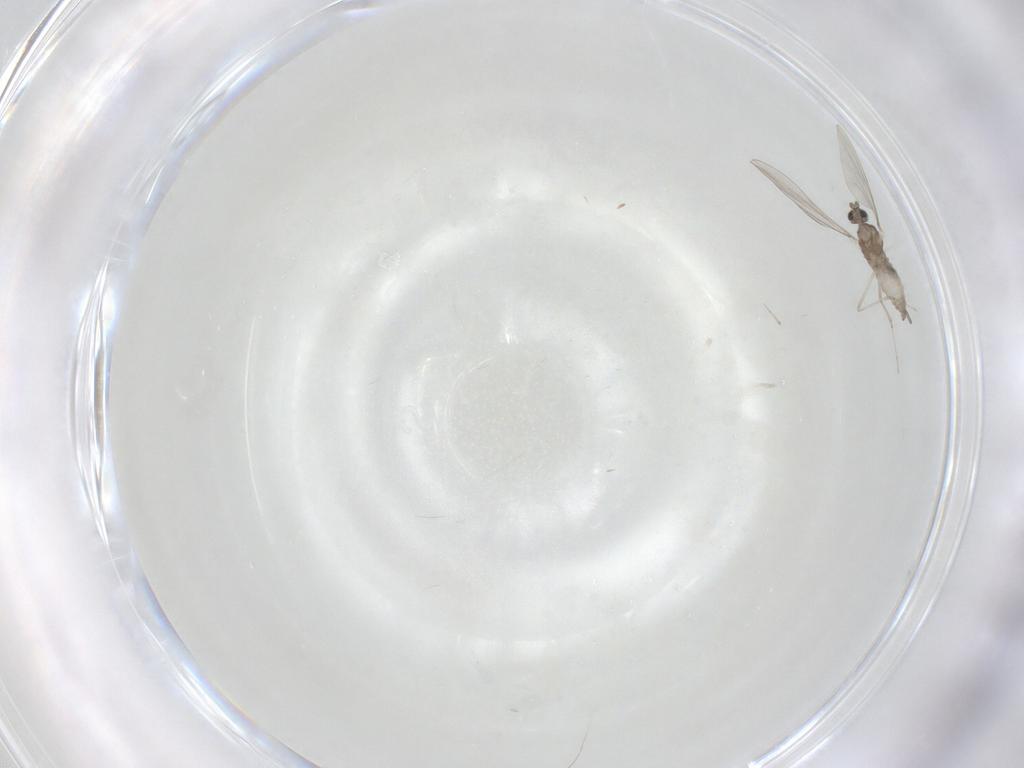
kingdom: Animalia
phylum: Arthropoda
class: Insecta
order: Diptera
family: Cecidomyiidae
